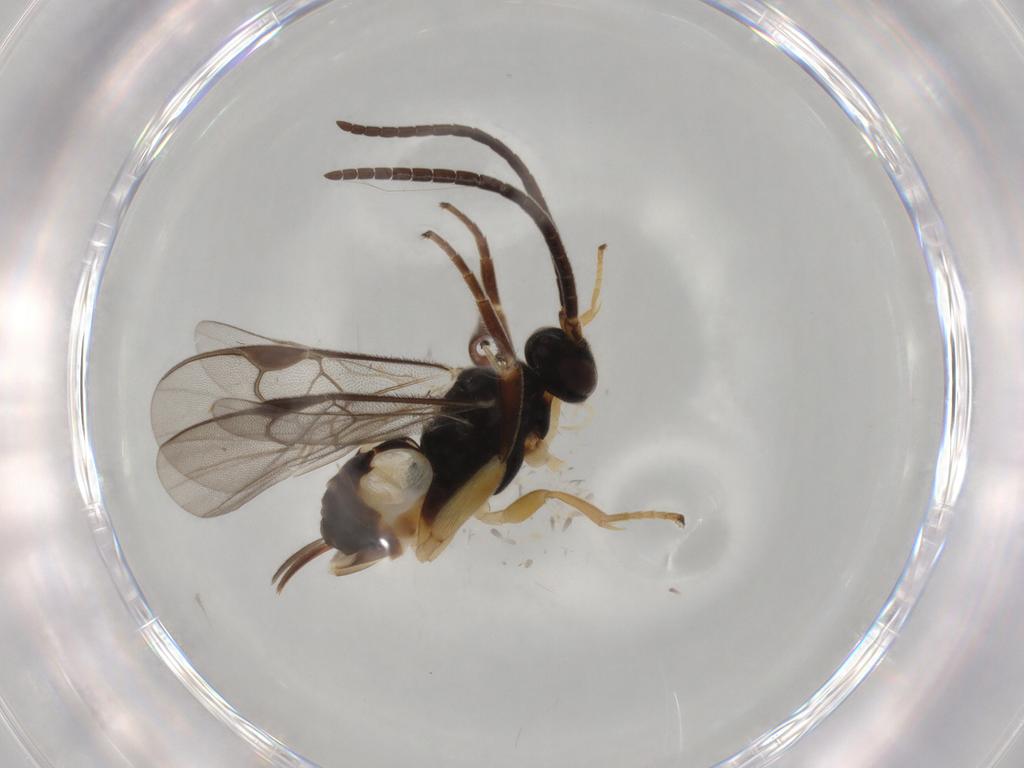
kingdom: Animalia
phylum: Arthropoda
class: Insecta
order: Hymenoptera
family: Braconidae
